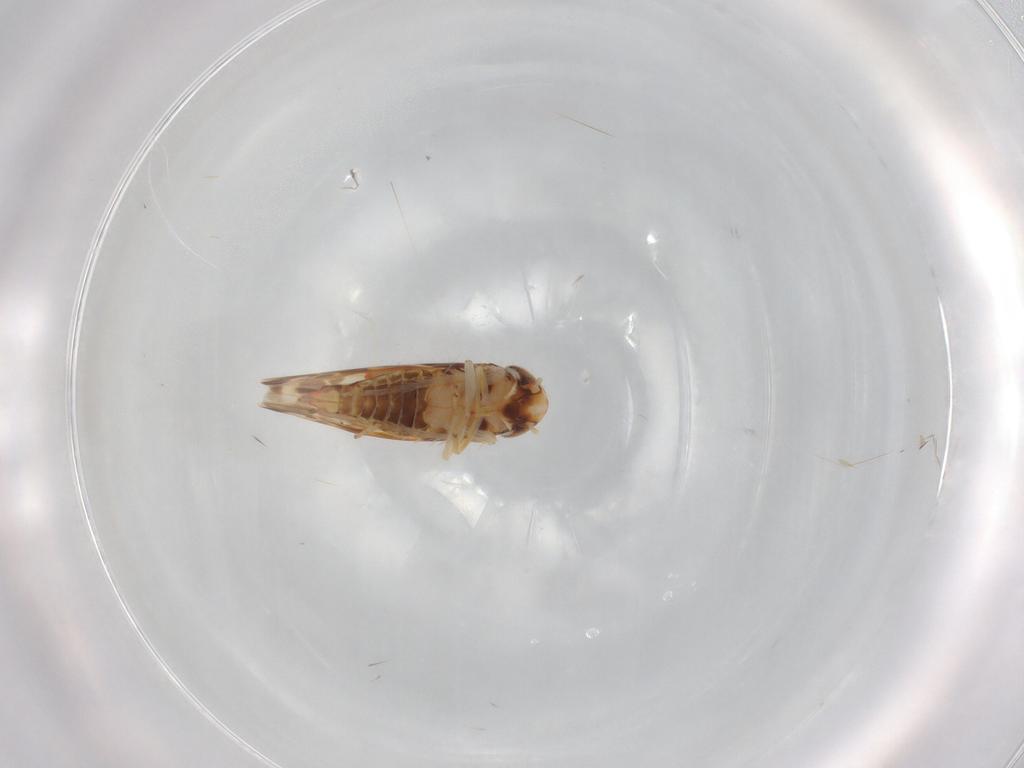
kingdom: Animalia
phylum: Arthropoda
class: Insecta
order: Hemiptera
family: Cicadellidae
